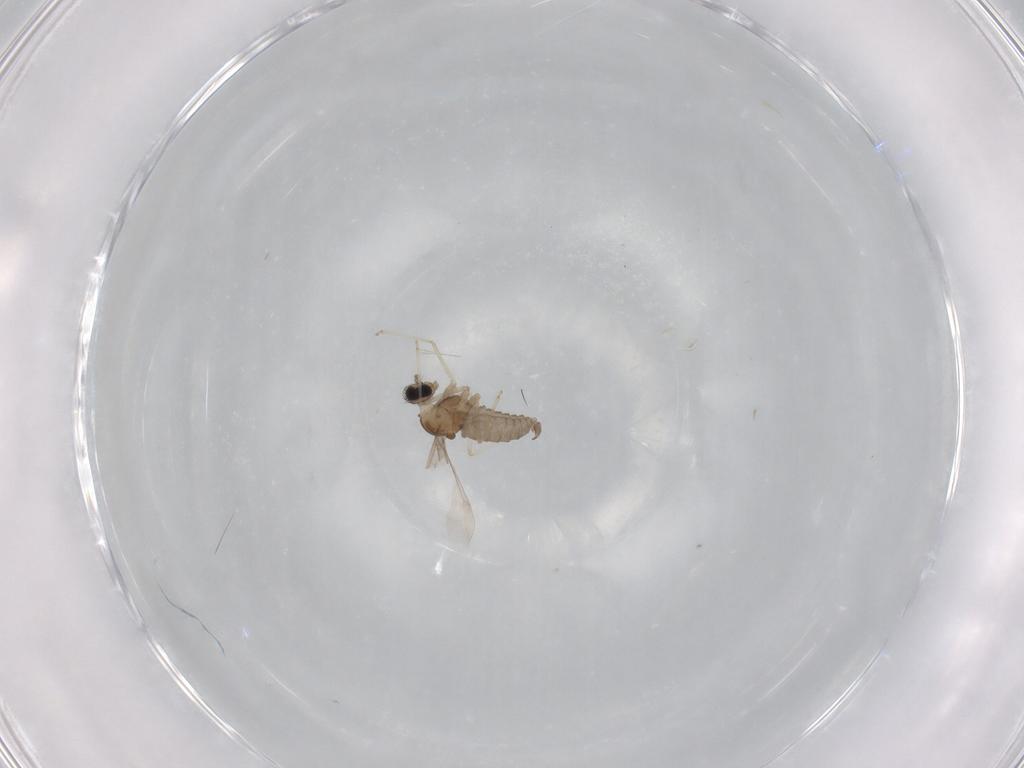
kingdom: Animalia
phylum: Arthropoda
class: Insecta
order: Diptera
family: Cecidomyiidae
